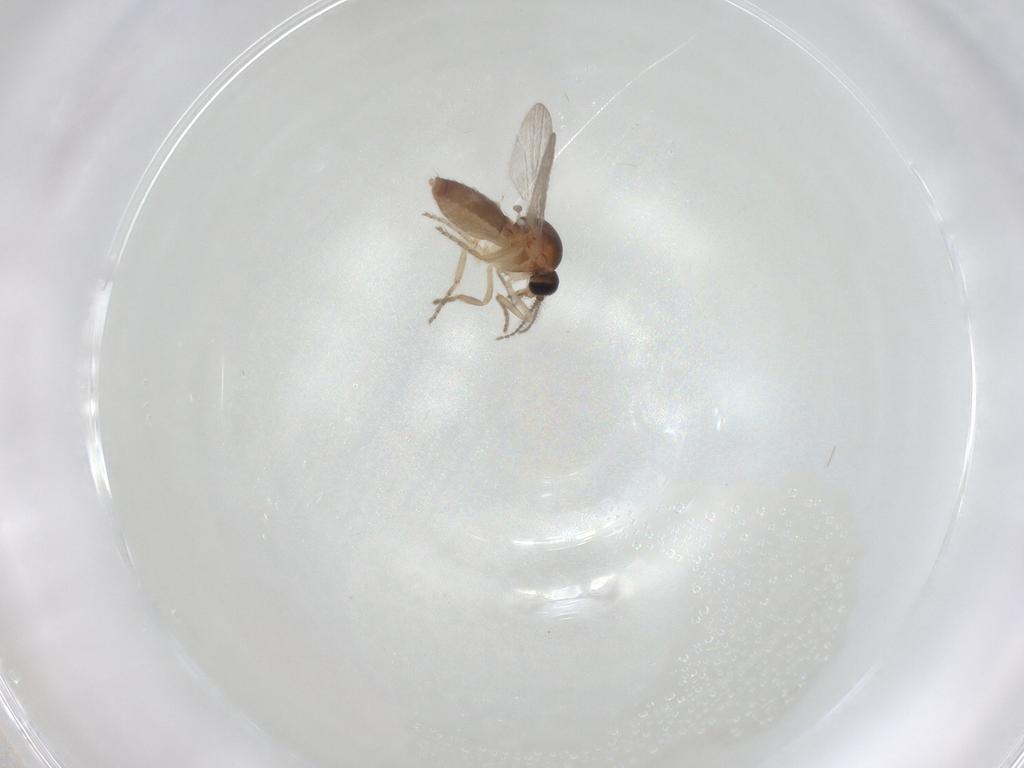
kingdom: Animalia
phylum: Arthropoda
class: Insecta
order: Diptera
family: Ceratopogonidae
